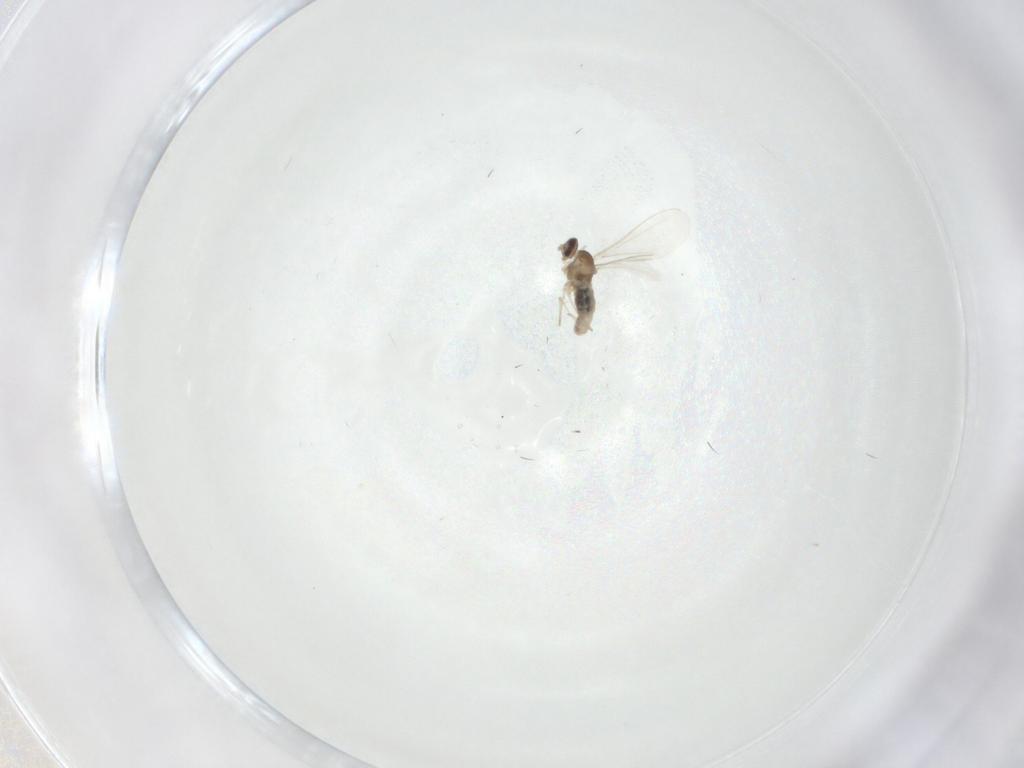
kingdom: Animalia
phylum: Arthropoda
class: Insecta
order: Diptera
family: Cecidomyiidae
